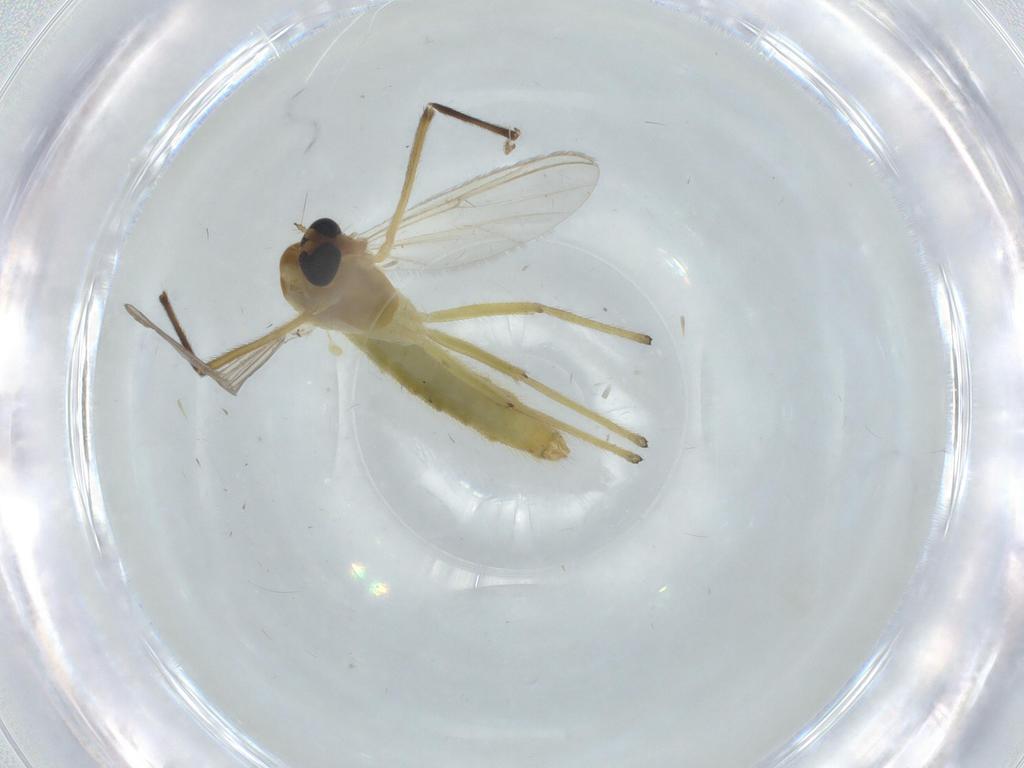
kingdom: Animalia
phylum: Arthropoda
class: Insecta
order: Diptera
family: Chironomidae
